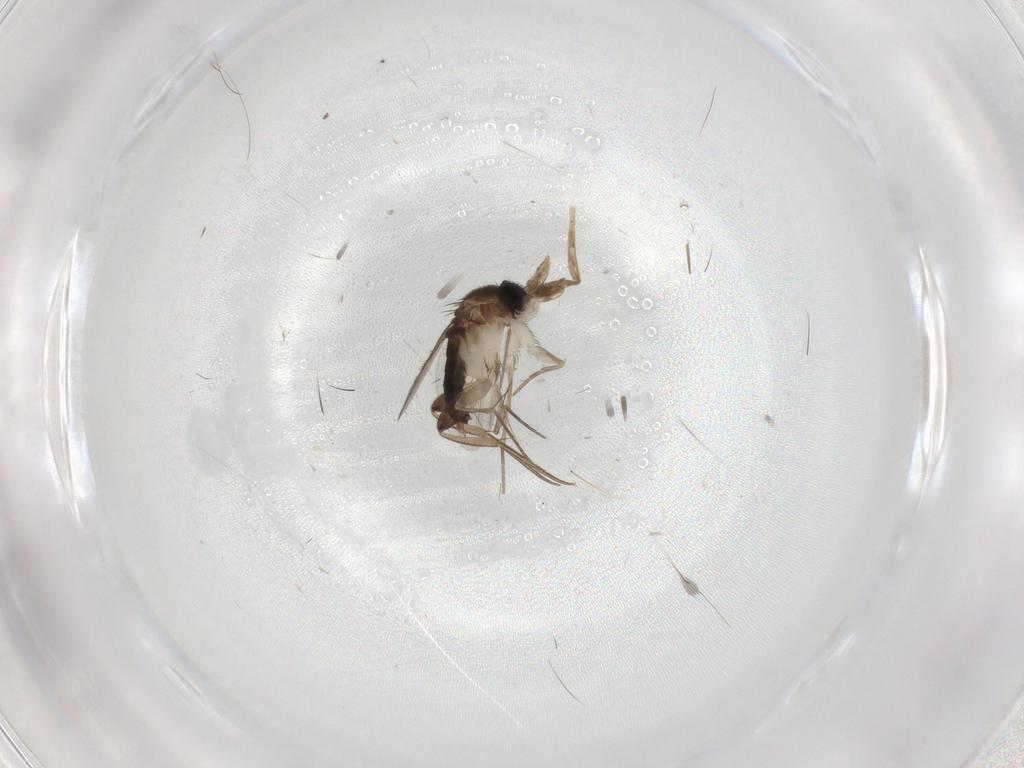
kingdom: Animalia
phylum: Arthropoda
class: Insecta
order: Diptera
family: Phoridae
